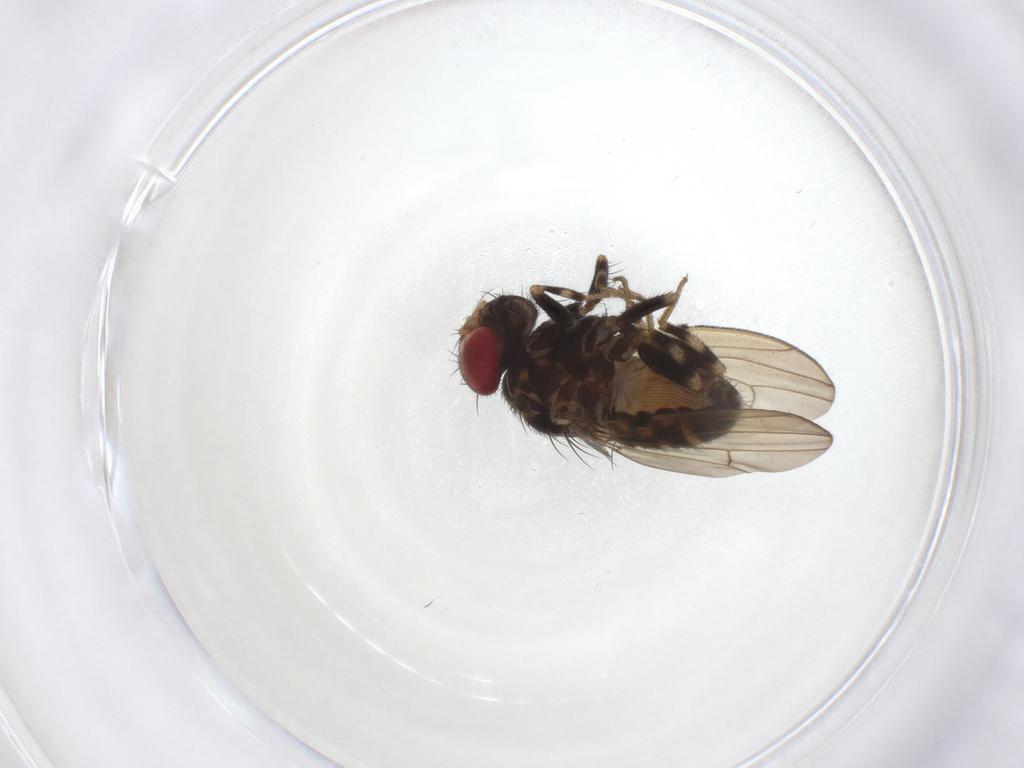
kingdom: Animalia
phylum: Arthropoda
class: Insecta
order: Diptera
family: Drosophilidae
